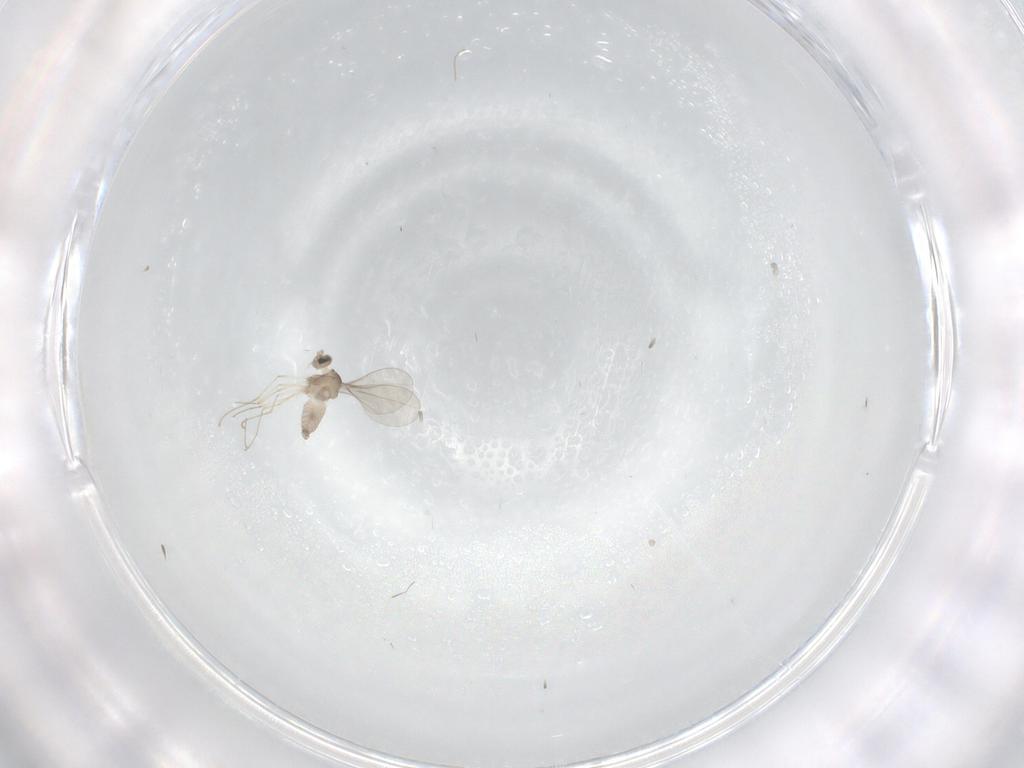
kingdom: Animalia
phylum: Arthropoda
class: Insecta
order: Diptera
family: Cecidomyiidae
